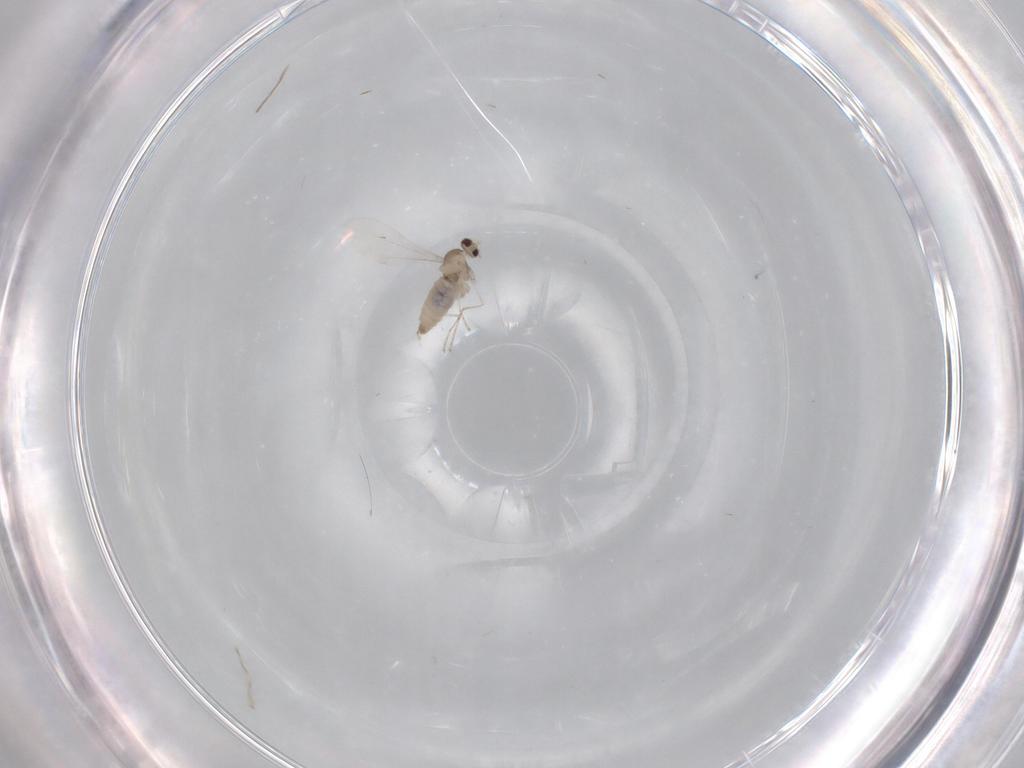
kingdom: Animalia
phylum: Arthropoda
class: Insecta
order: Diptera
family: Cecidomyiidae
